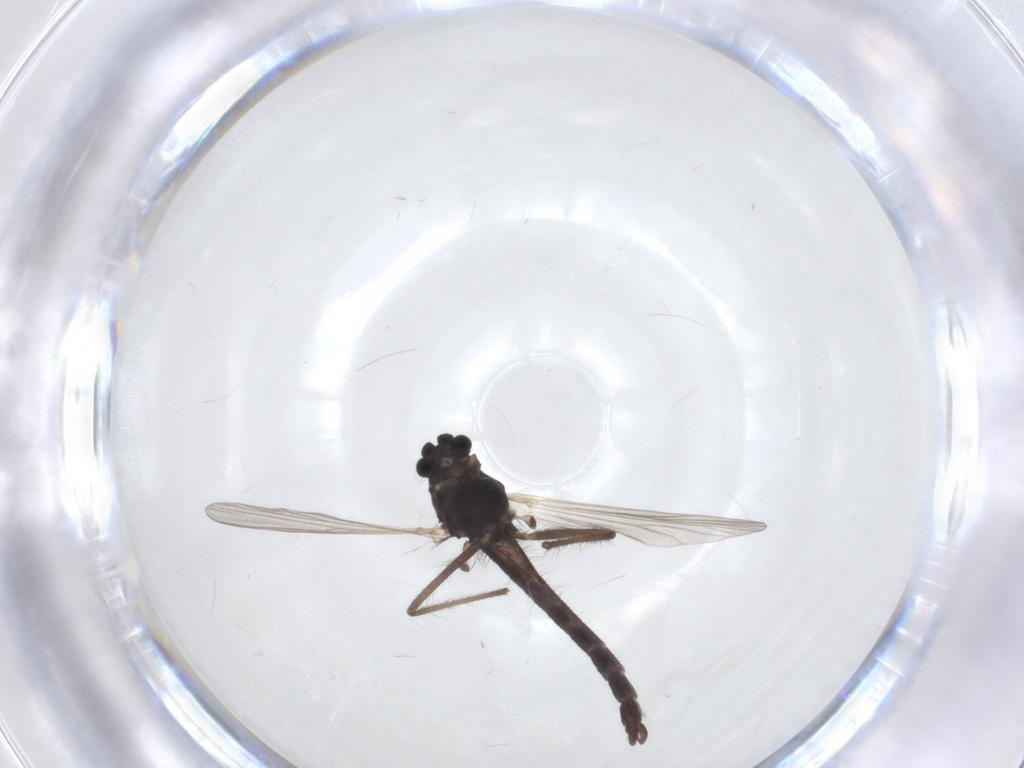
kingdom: Animalia
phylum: Arthropoda
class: Insecta
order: Diptera
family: Chironomidae
